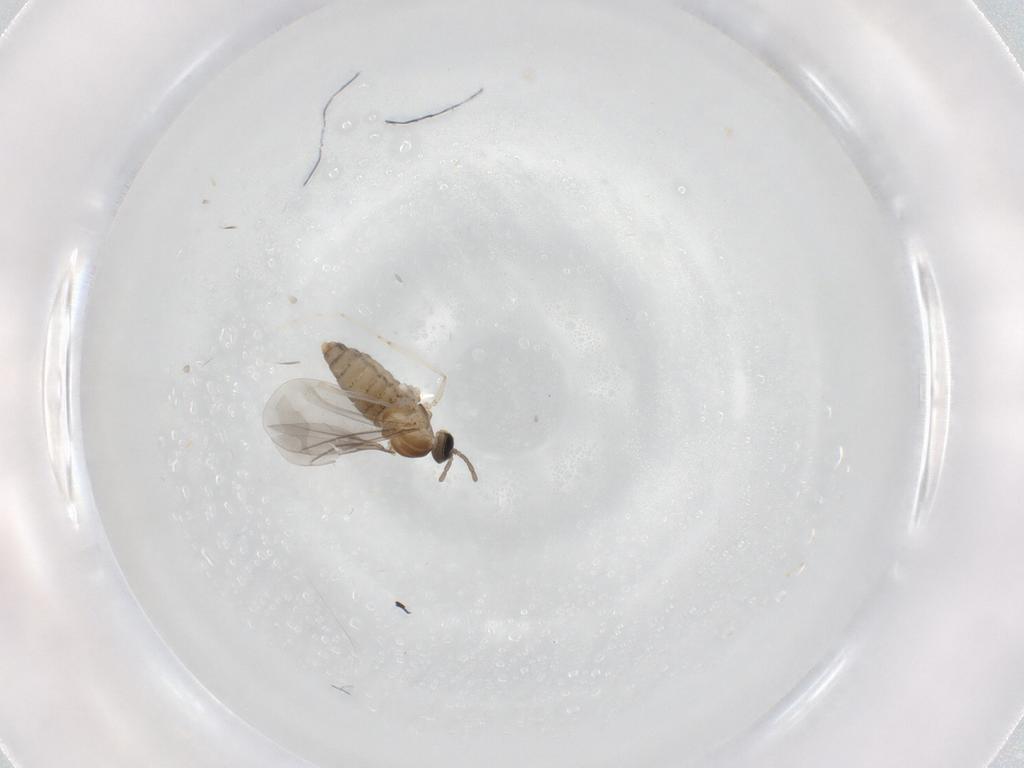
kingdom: Animalia
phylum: Arthropoda
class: Insecta
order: Diptera
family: Cecidomyiidae
